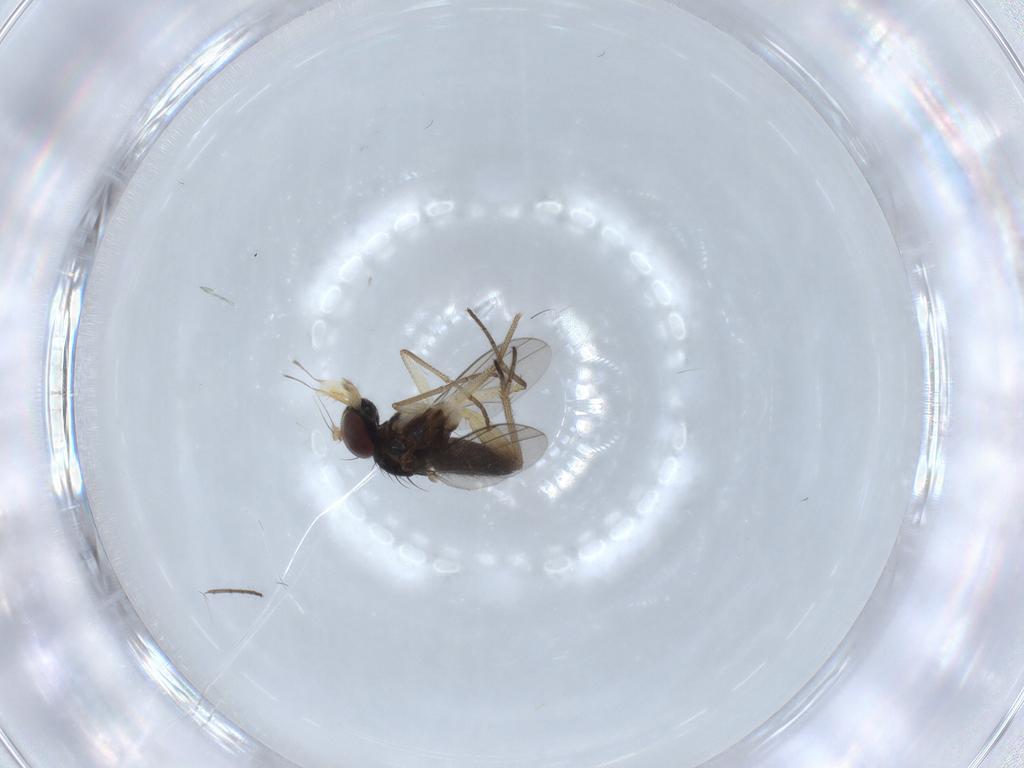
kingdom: Animalia
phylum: Arthropoda
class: Insecta
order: Diptera
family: Dolichopodidae
